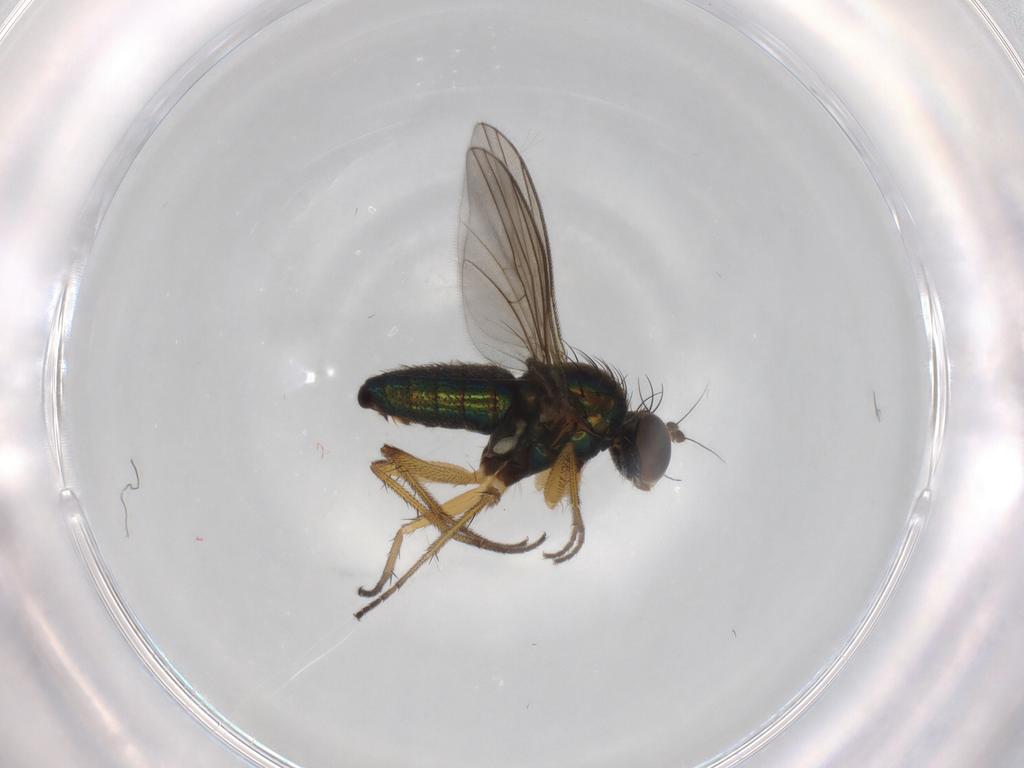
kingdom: Animalia
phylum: Arthropoda
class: Insecta
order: Diptera
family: Dolichopodidae
